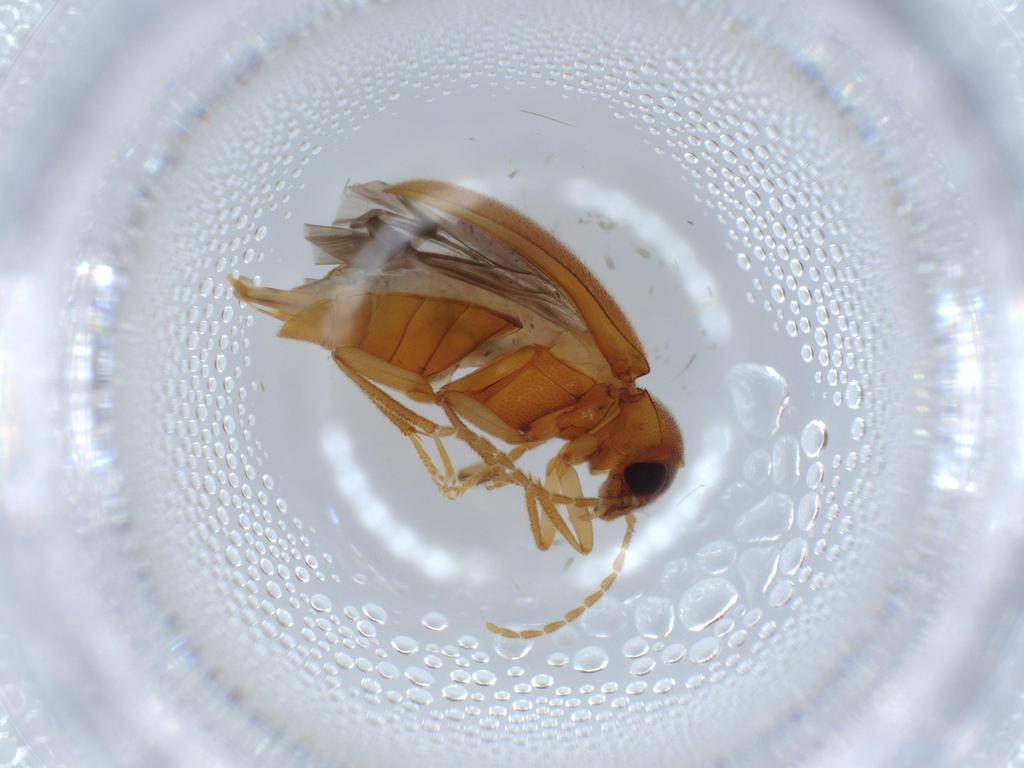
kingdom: Animalia
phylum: Arthropoda
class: Insecta
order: Coleoptera
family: Ptilodactylidae
